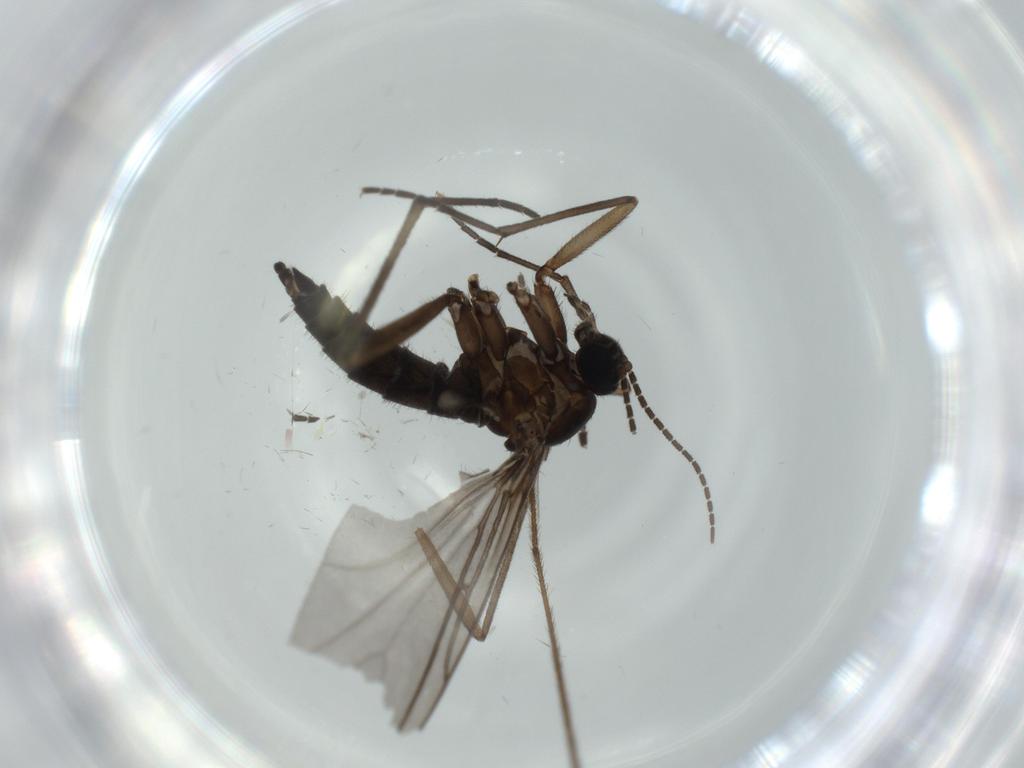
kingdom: Animalia
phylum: Arthropoda
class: Insecta
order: Diptera
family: Sciaridae
